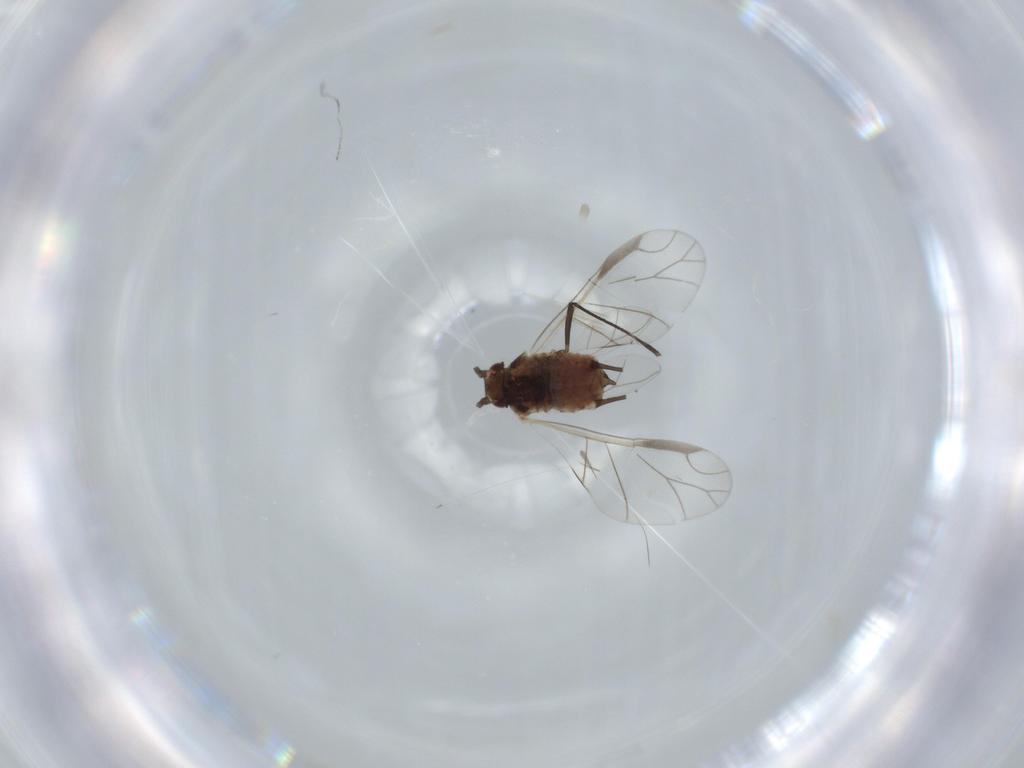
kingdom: Animalia
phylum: Arthropoda
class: Insecta
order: Hemiptera
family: Aphididae
